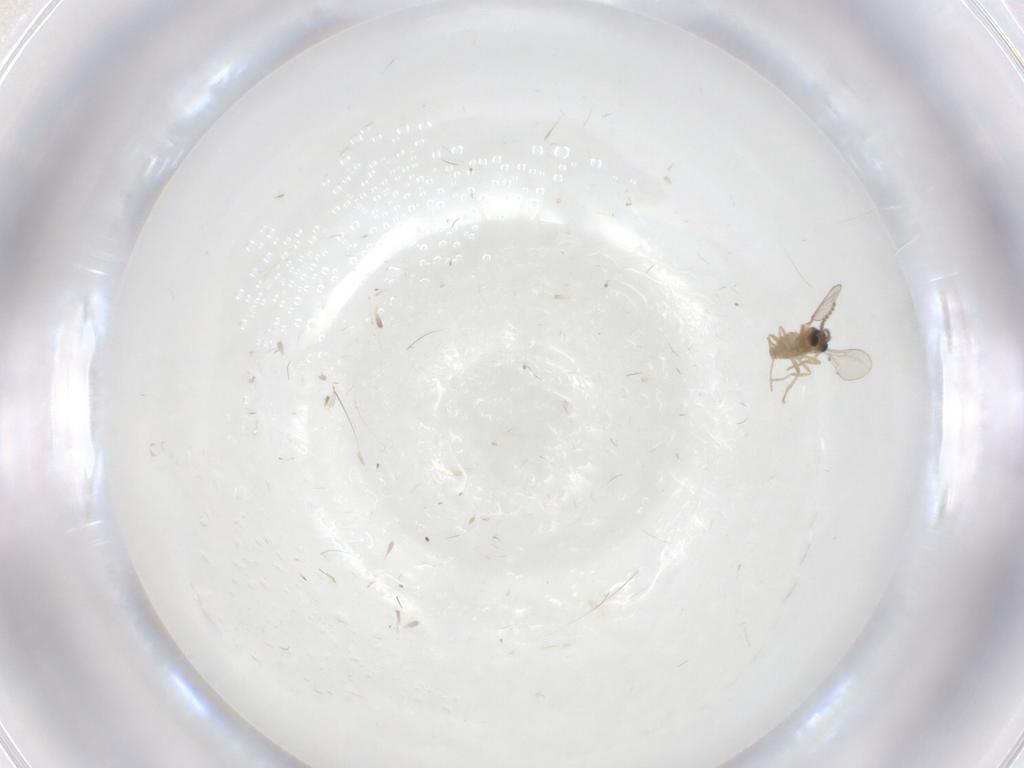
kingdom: Animalia
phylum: Arthropoda
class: Insecta
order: Diptera
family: Cecidomyiidae
